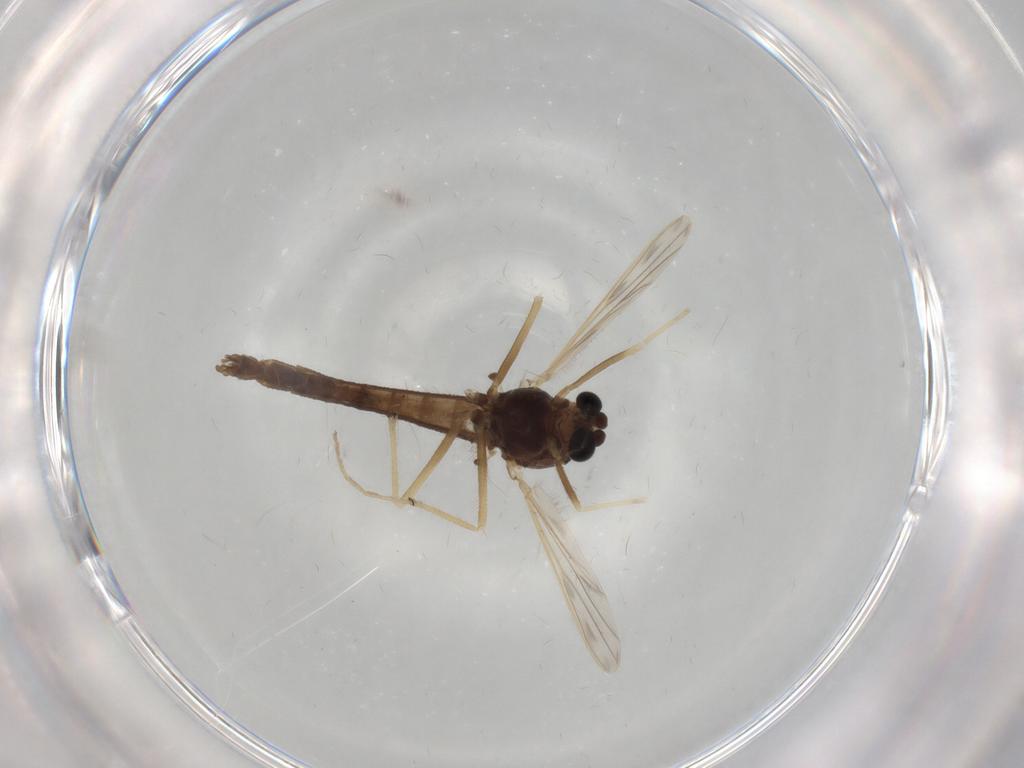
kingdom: Animalia
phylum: Arthropoda
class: Insecta
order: Diptera
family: Chironomidae
